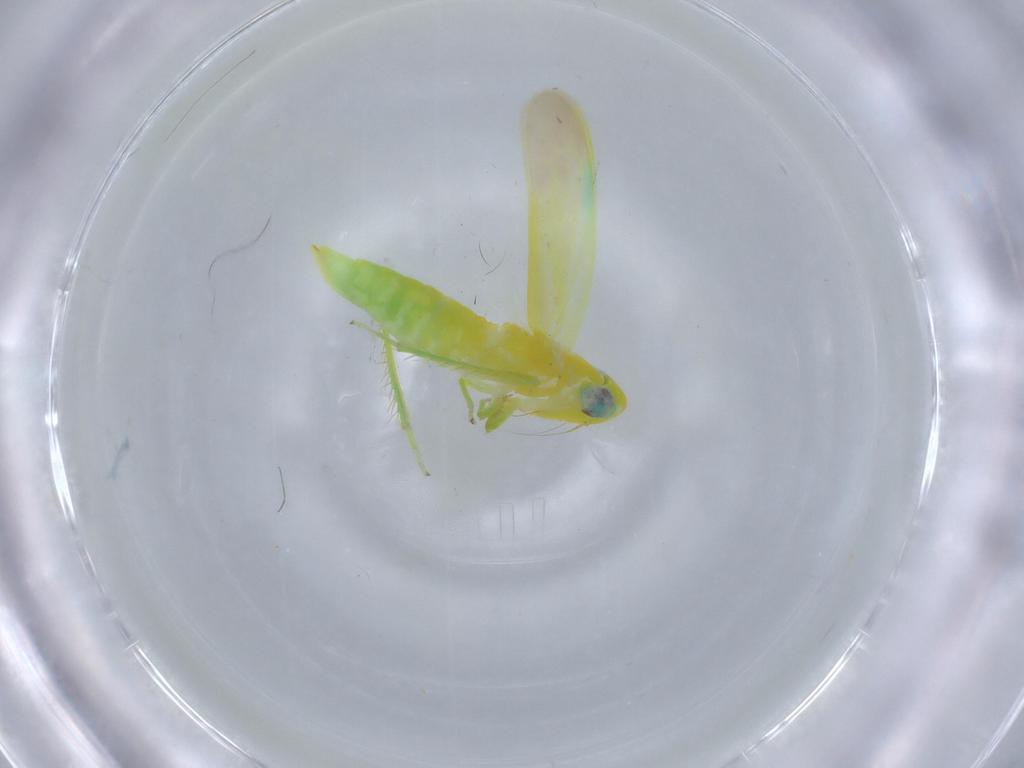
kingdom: Animalia
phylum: Arthropoda
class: Insecta
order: Hemiptera
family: Cicadellidae
